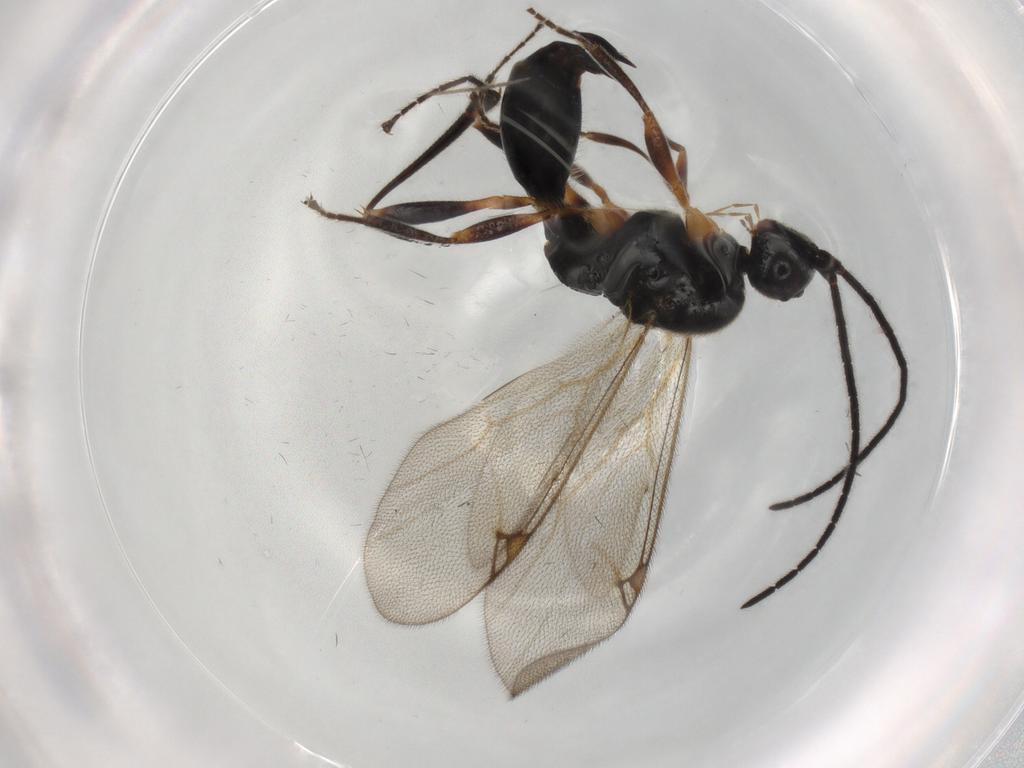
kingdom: Animalia
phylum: Arthropoda
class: Insecta
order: Hymenoptera
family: Proctotrupidae
